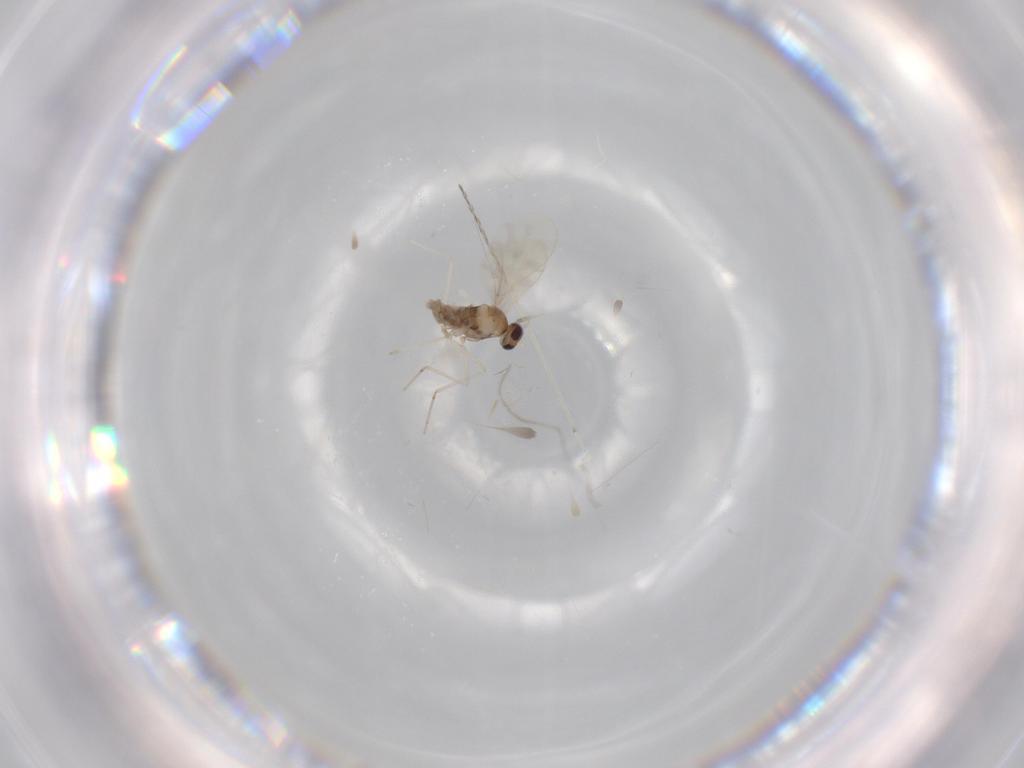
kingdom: Animalia
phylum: Arthropoda
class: Insecta
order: Diptera
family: Cecidomyiidae
